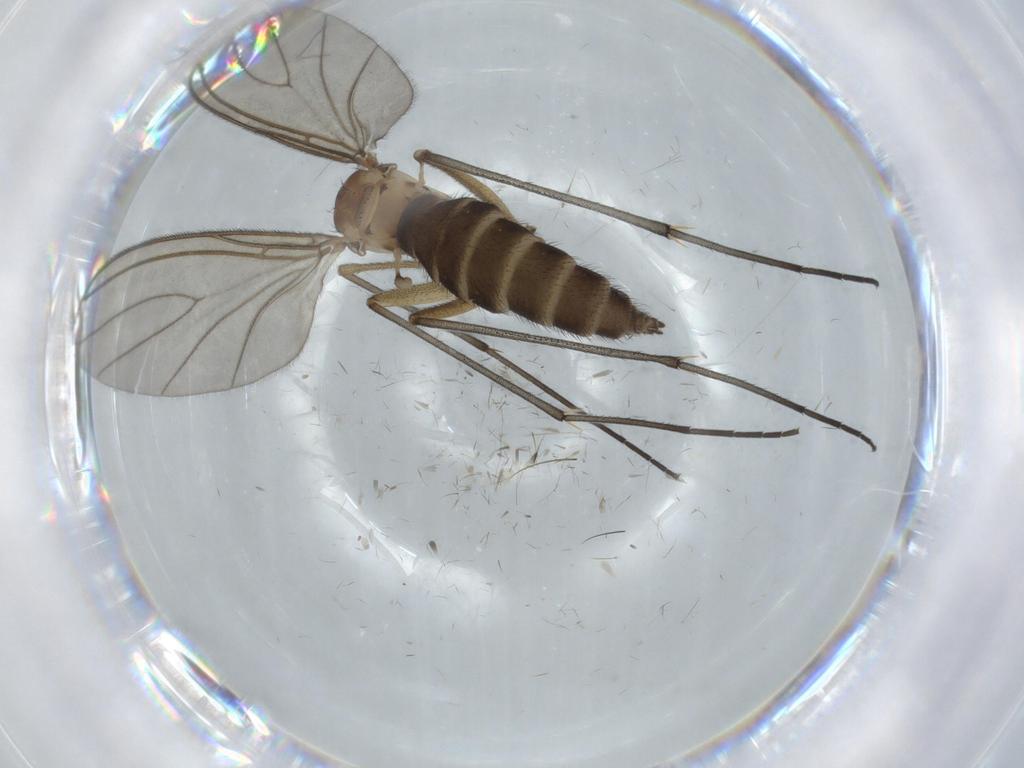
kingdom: Animalia
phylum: Arthropoda
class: Insecta
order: Diptera
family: Sciaridae
